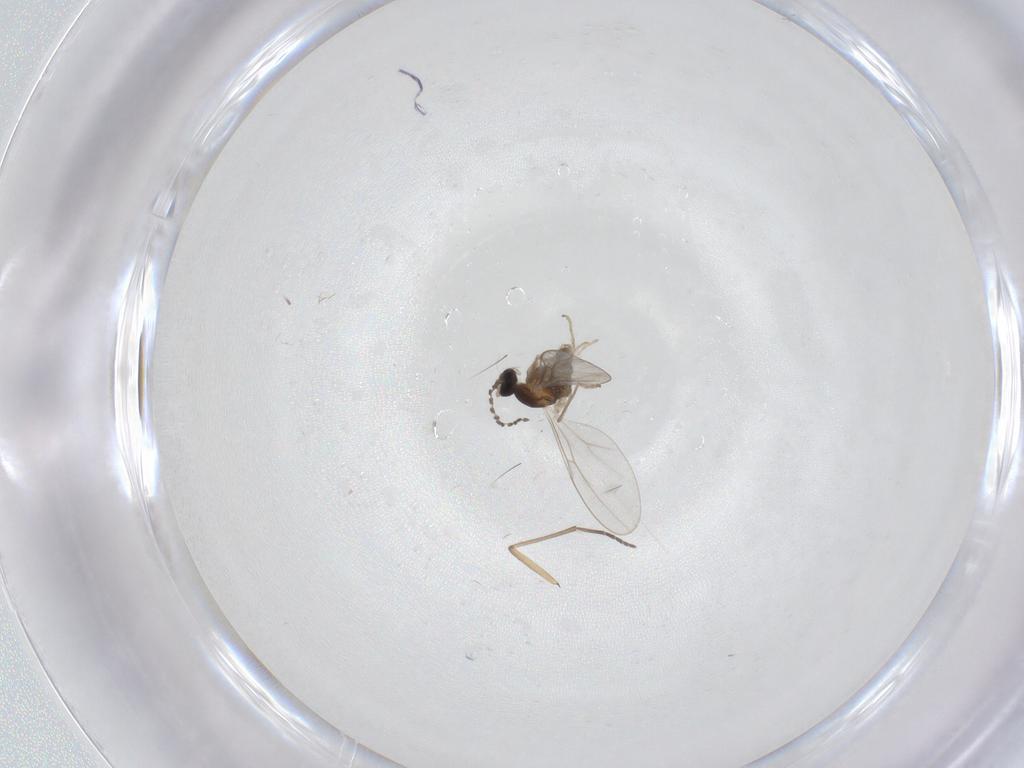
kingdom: Animalia
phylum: Arthropoda
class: Insecta
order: Diptera
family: Cecidomyiidae
